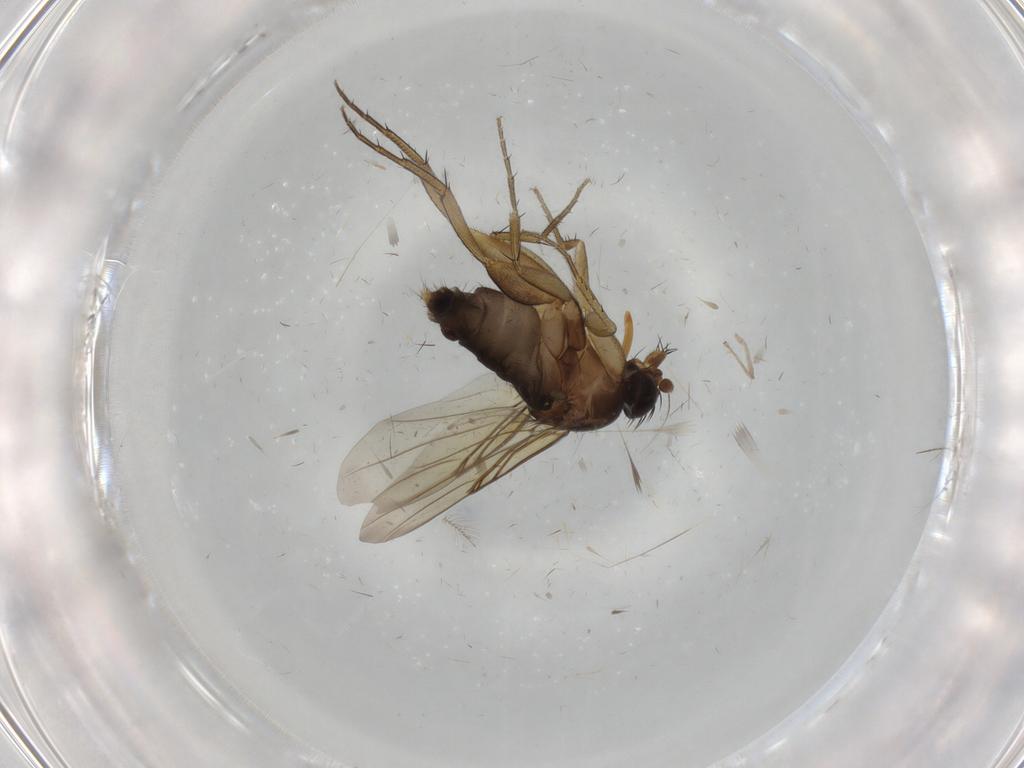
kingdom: Animalia
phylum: Arthropoda
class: Insecta
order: Diptera
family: Phoridae
